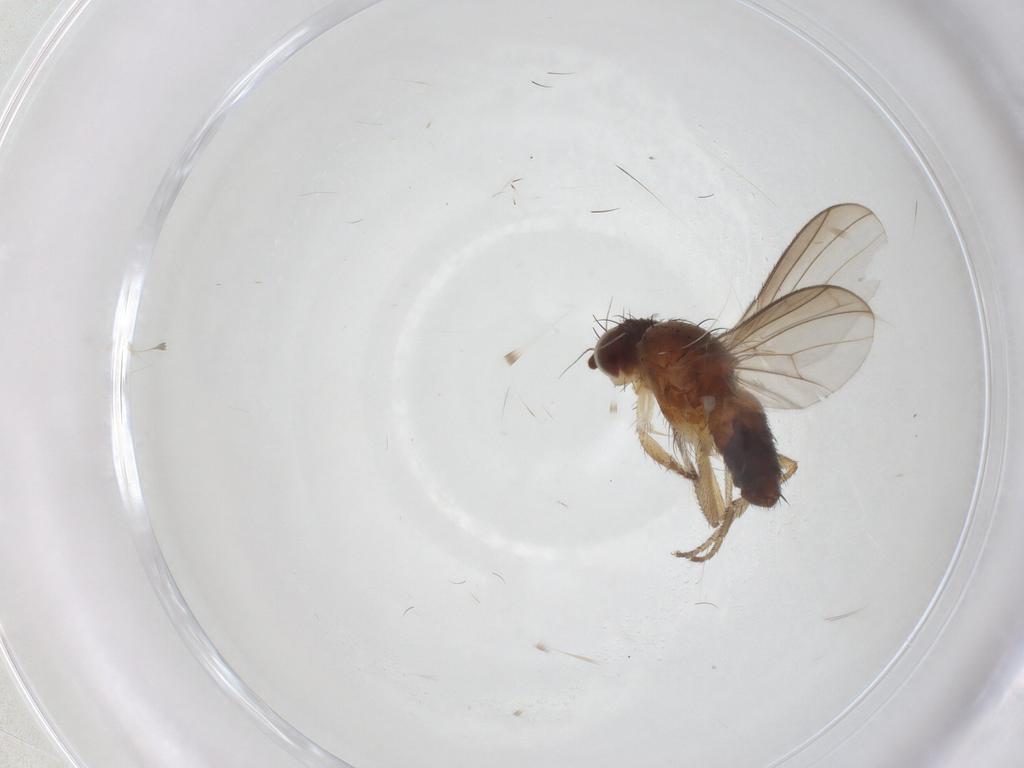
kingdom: Animalia
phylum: Arthropoda
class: Insecta
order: Diptera
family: Heleomyzidae
